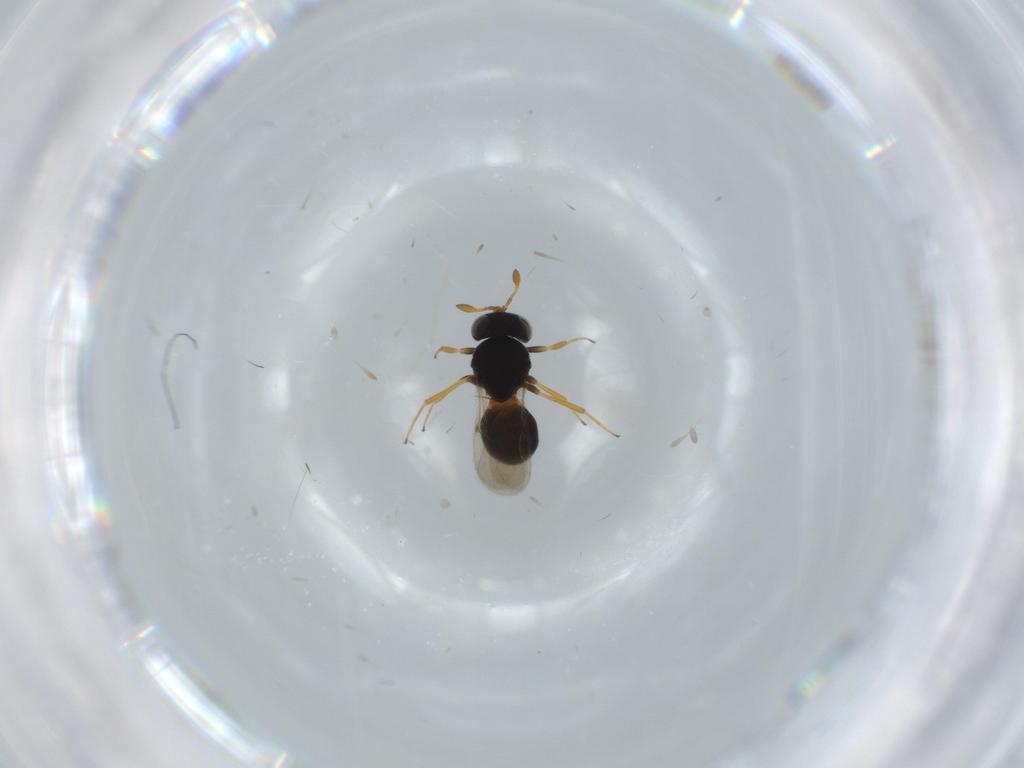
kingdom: Animalia
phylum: Arthropoda
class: Insecta
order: Hymenoptera
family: Scelionidae
